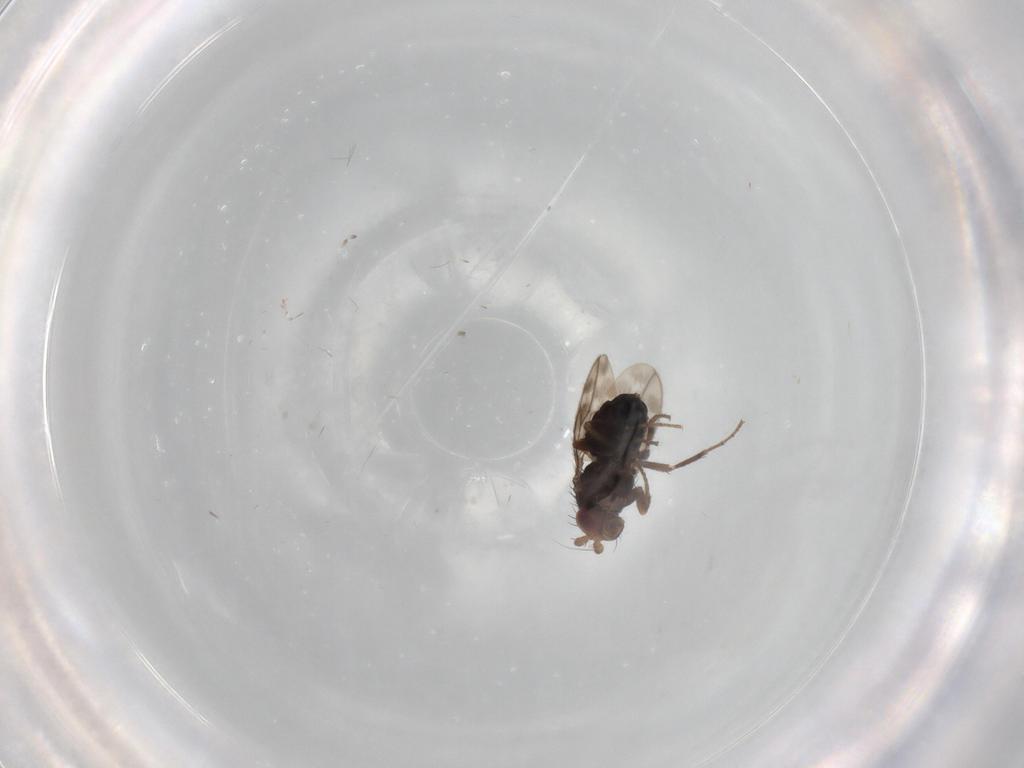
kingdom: Animalia
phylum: Arthropoda
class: Insecta
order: Diptera
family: Sphaeroceridae
